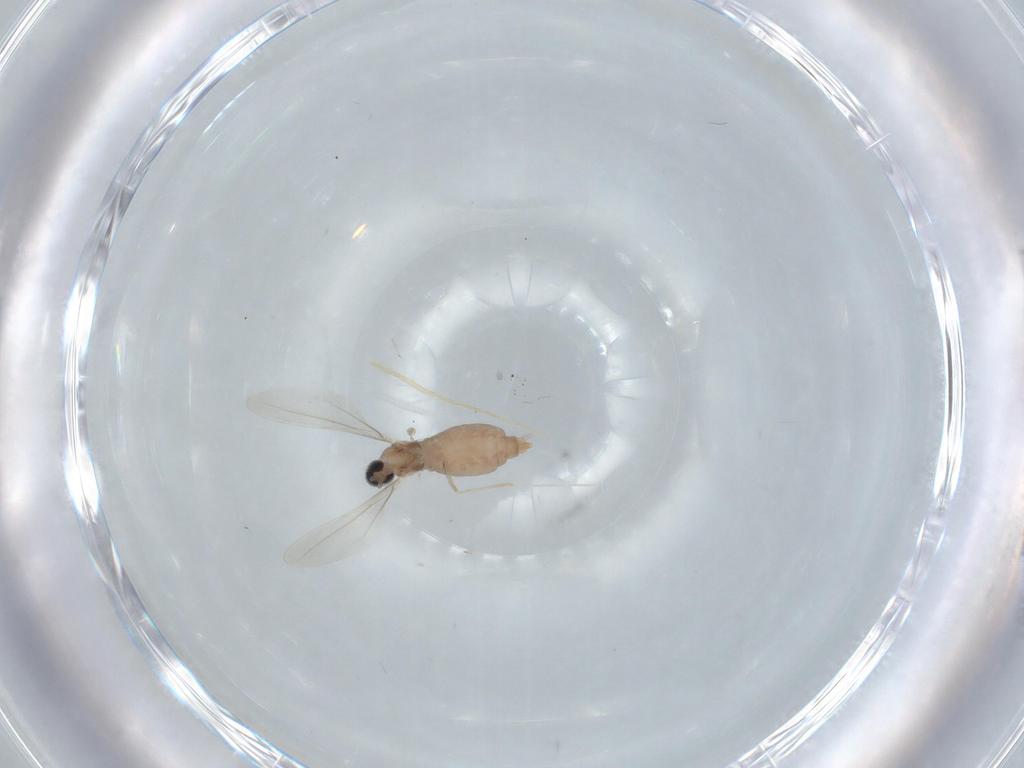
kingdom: Animalia
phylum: Arthropoda
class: Insecta
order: Diptera
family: Cecidomyiidae
